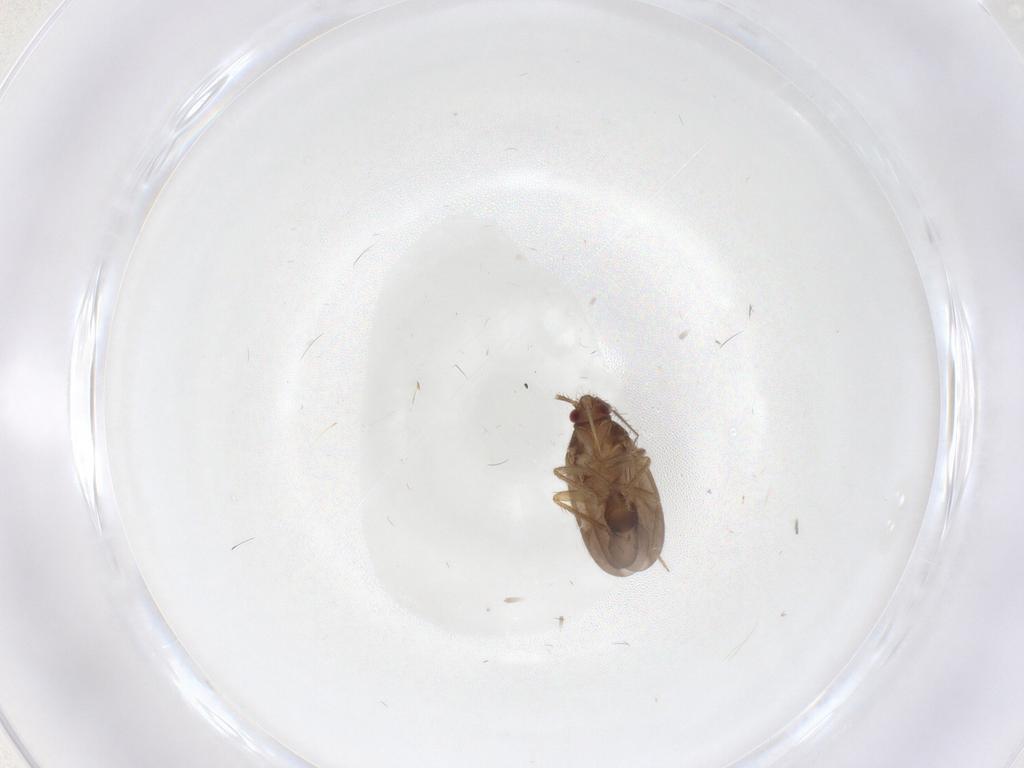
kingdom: Animalia
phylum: Arthropoda
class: Insecta
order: Hemiptera
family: Ceratocombidae
